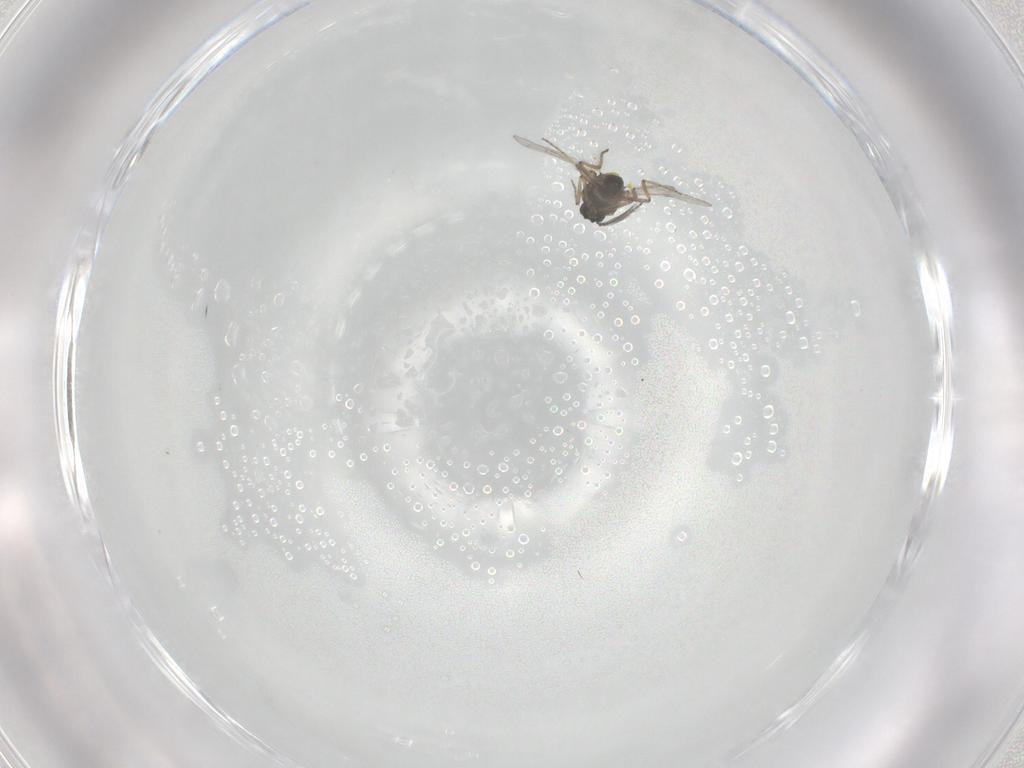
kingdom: Animalia
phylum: Arthropoda
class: Insecta
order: Diptera
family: Ceratopogonidae
